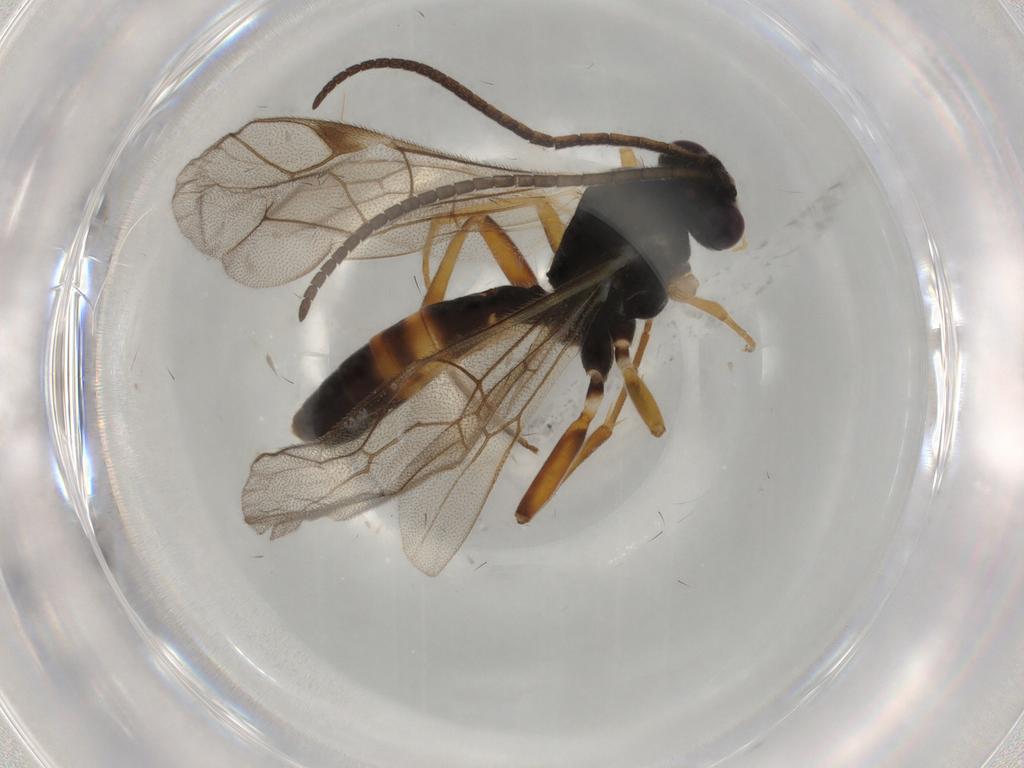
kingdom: Animalia
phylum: Arthropoda
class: Insecta
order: Hymenoptera
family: Ichneumonidae
